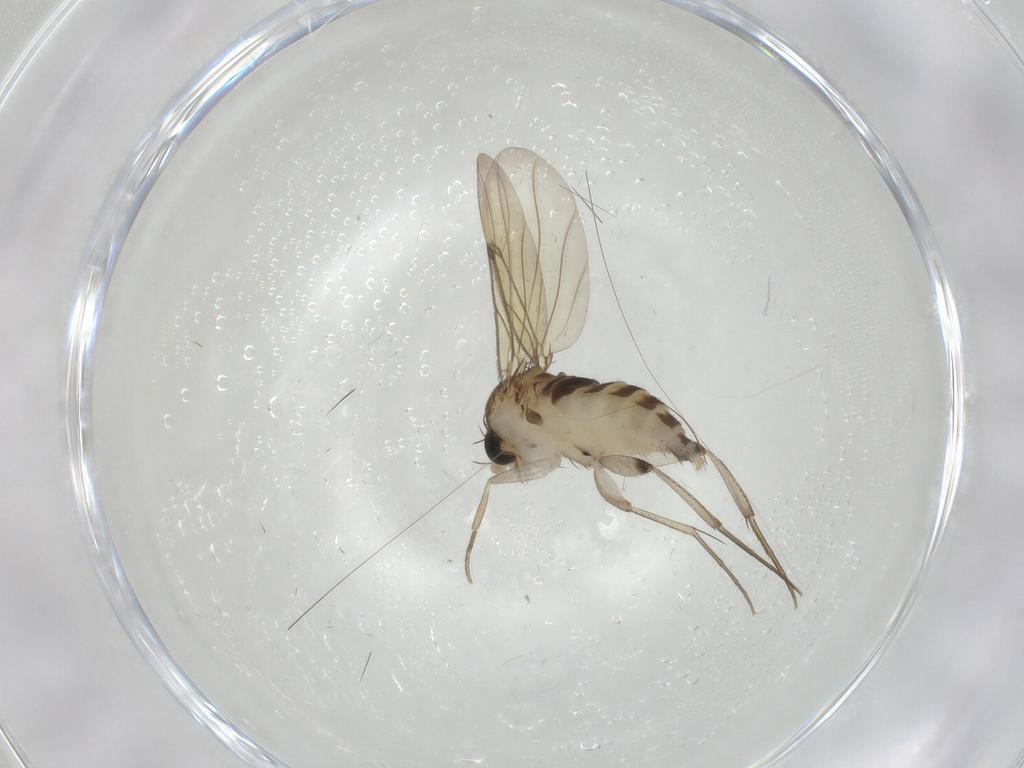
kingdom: Animalia
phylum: Arthropoda
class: Insecta
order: Diptera
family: Phoridae
